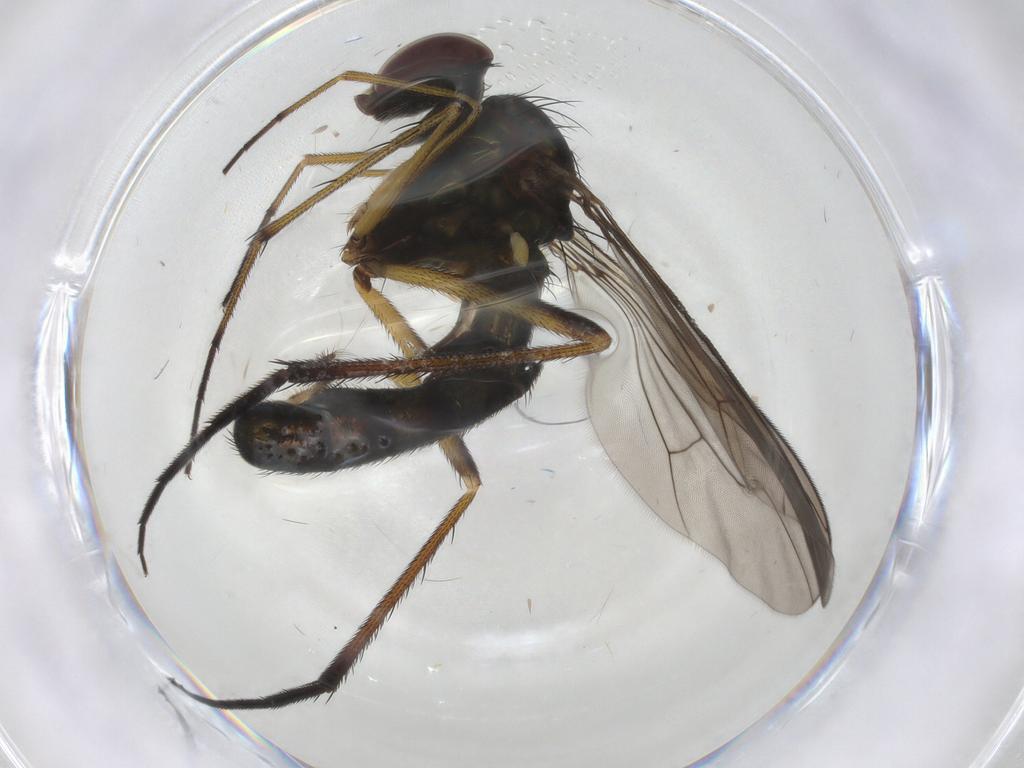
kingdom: Animalia
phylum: Arthropoda
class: Insecta
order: Diptera
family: Dolichopodidae
